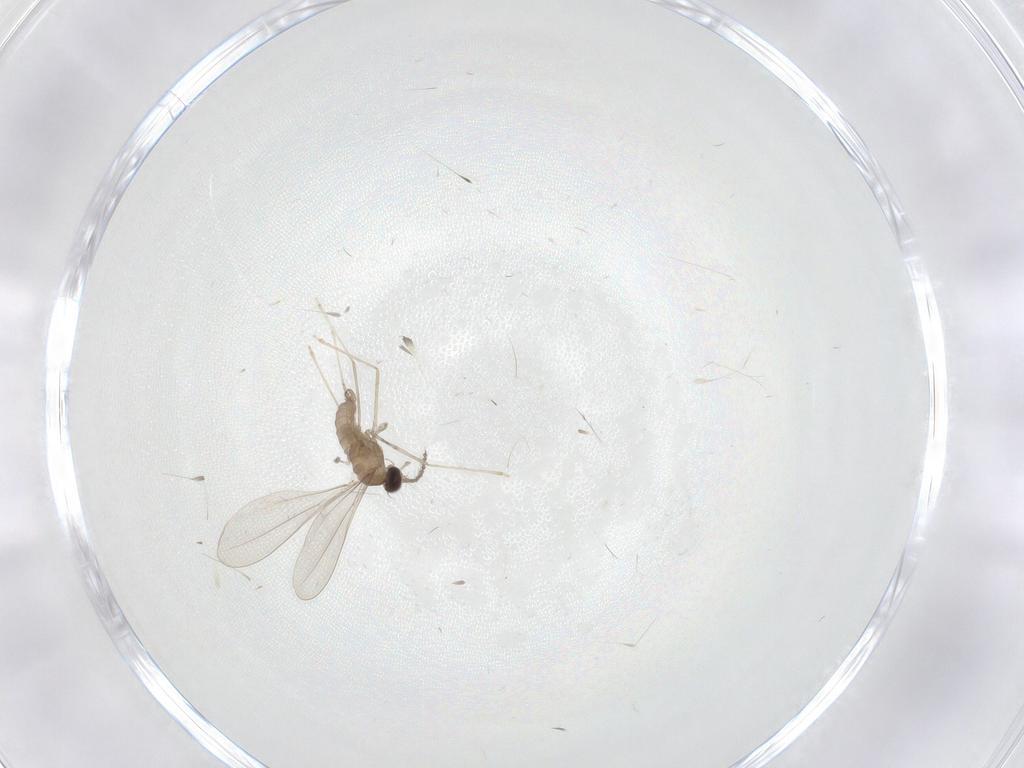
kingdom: Animalia
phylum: Arthropoda
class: Insecta
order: Diptera
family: Cecidomyiidae
